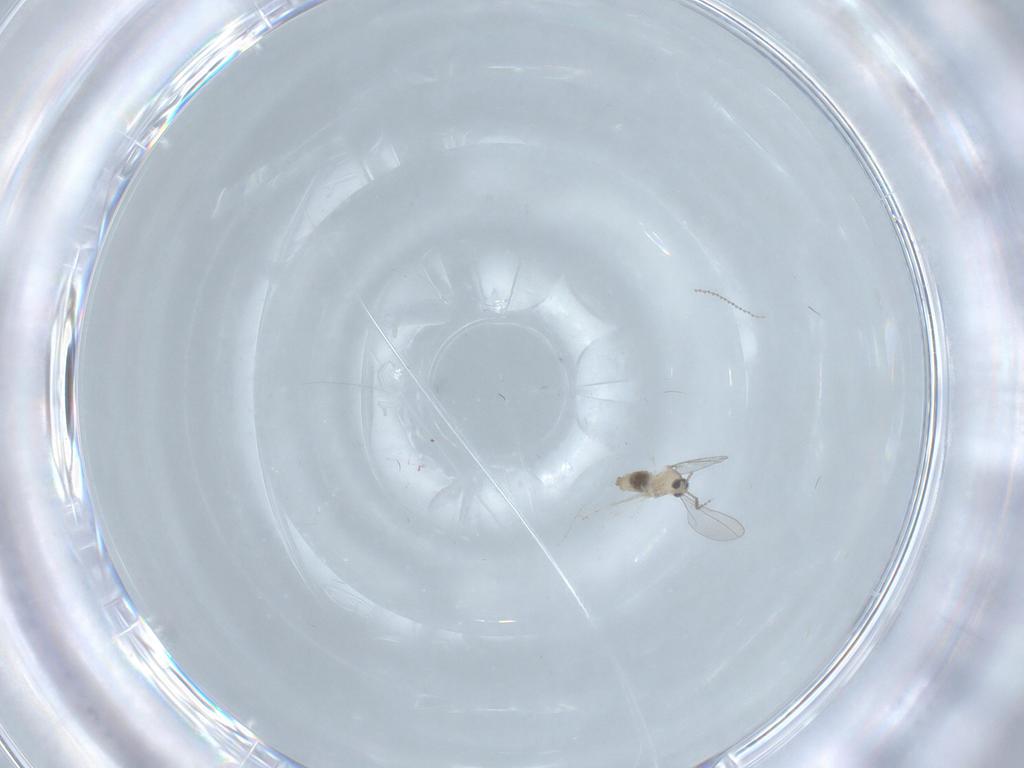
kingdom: Animalia
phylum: Arthropoda
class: Insecta
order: Diptera
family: Cecidomyiidae
